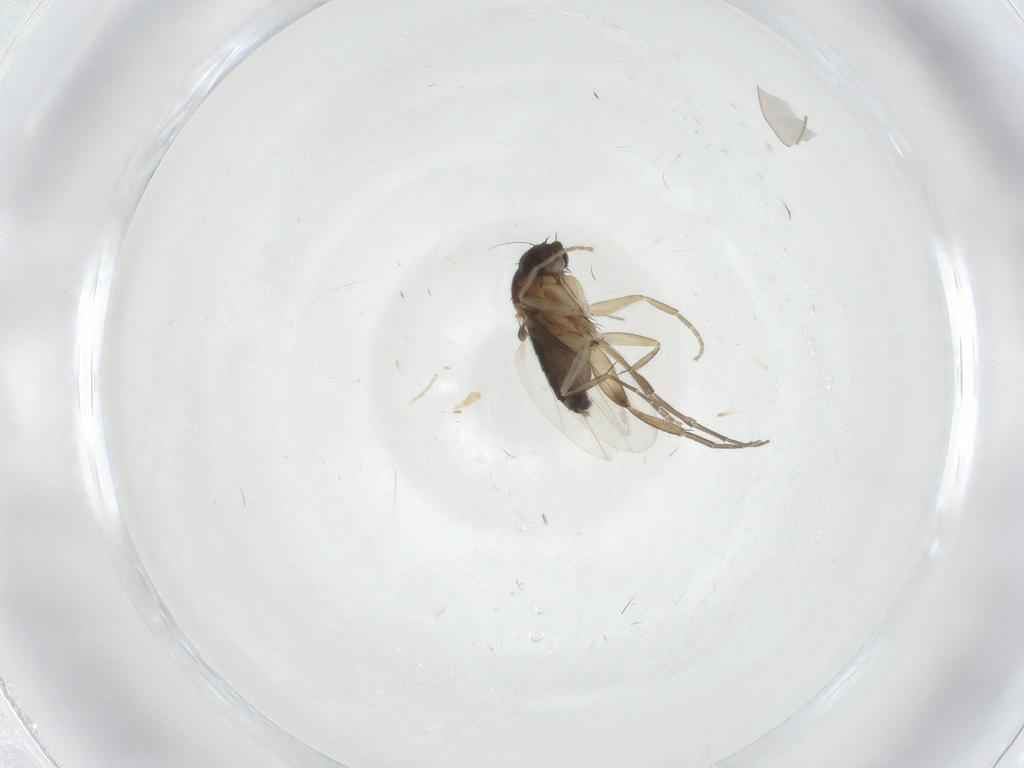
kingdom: Animalia
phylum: Arthropoda
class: Insecta
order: Diptera
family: Phoridae
